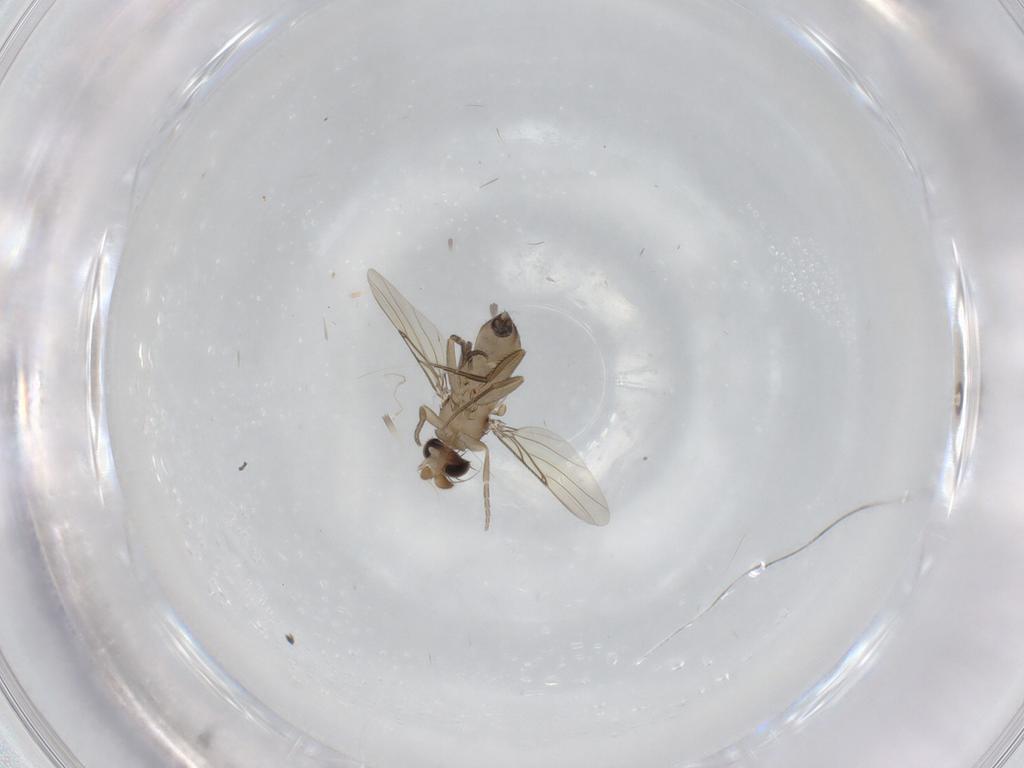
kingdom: Animalia
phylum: Arthropoda
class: Insecta
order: Diptera
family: Phoridae
